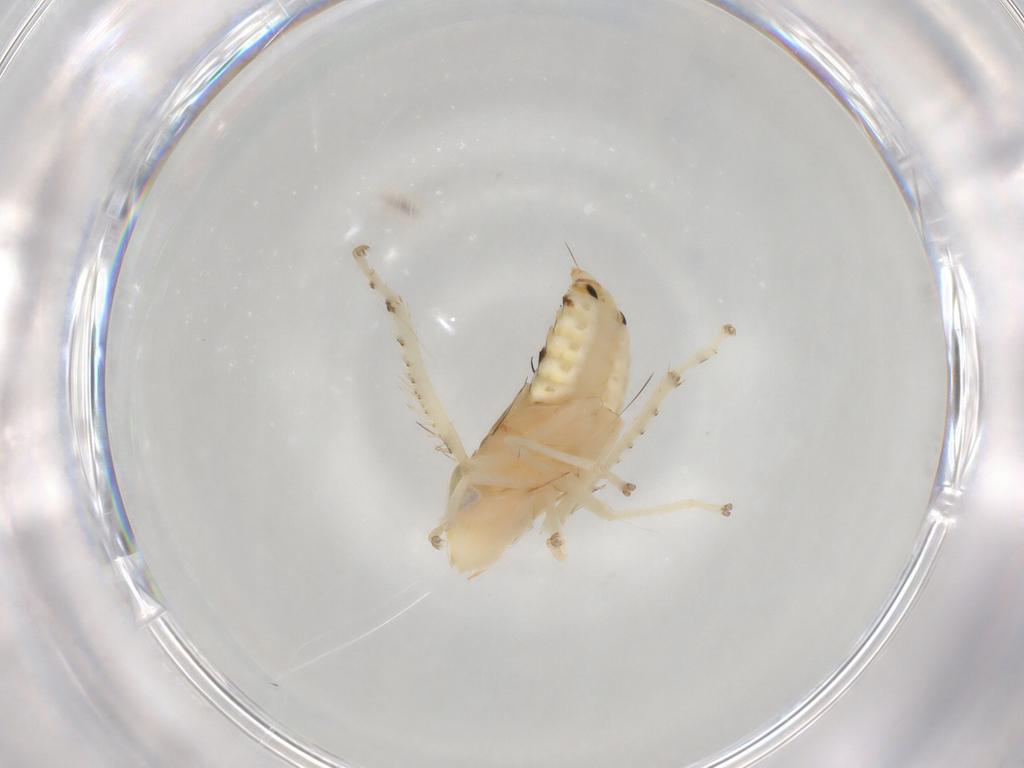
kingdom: Animalia
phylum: Arthropoda
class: Insecta
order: Hemiptera
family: Cicadellidae
